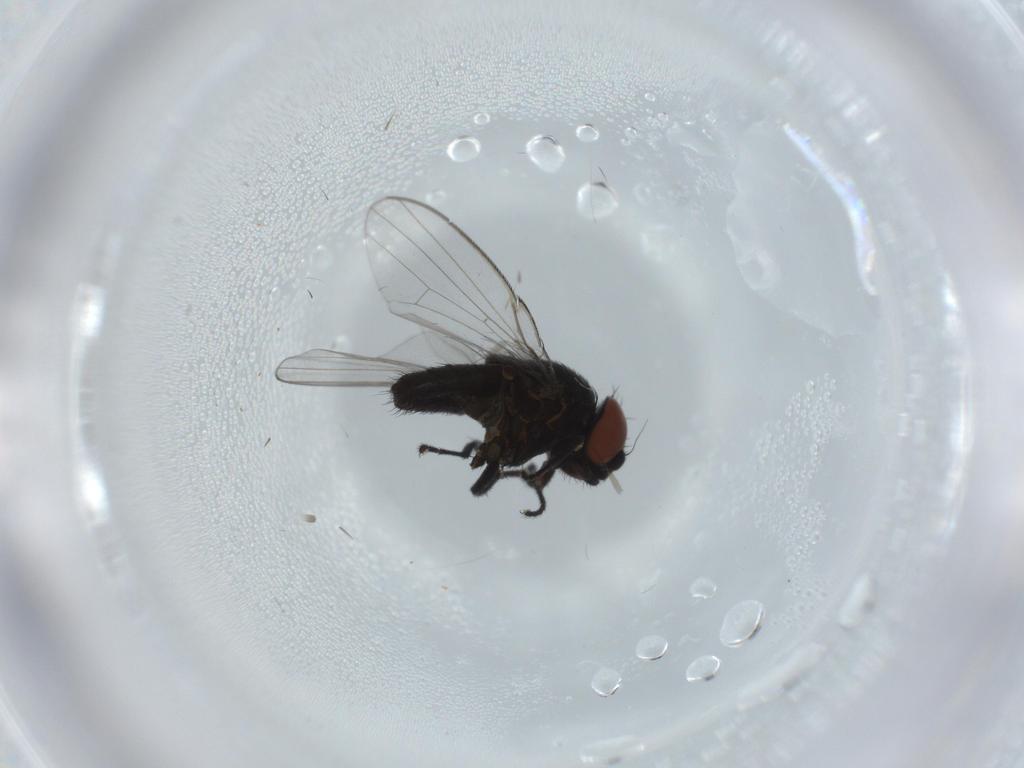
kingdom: Animalia
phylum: Arthropoda
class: Insecta
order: Diptera
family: Milichiidae
